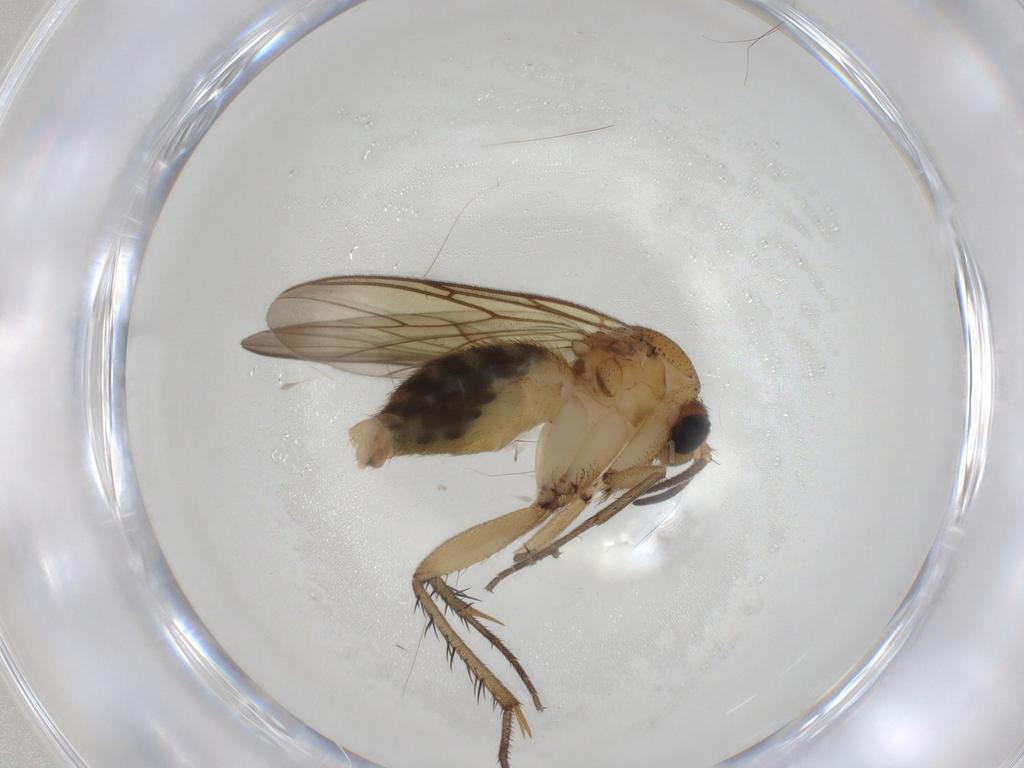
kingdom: Animalia
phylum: Arthropoda
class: Insecta
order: Diptera
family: Mycetophilidae
